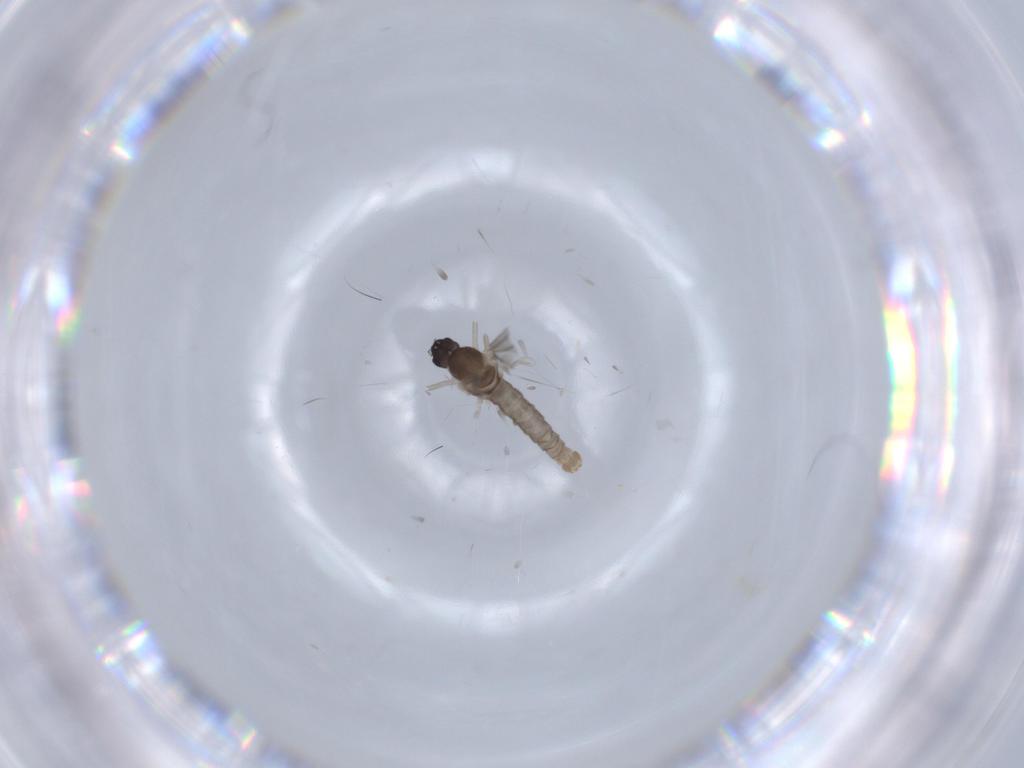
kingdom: Animalia
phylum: Arthropoda
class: Insecta
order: Diptera
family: Cecidomyiidae
